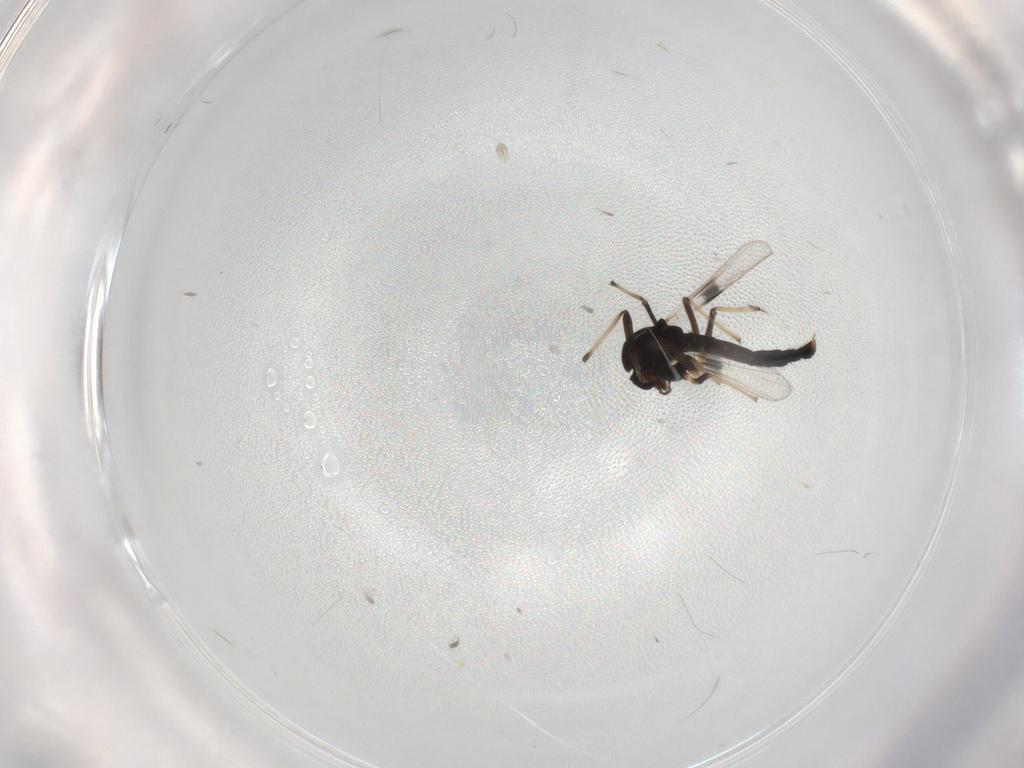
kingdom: Animalia
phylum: Arthropoda
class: Insecta
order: Diptera
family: Chironomidae
